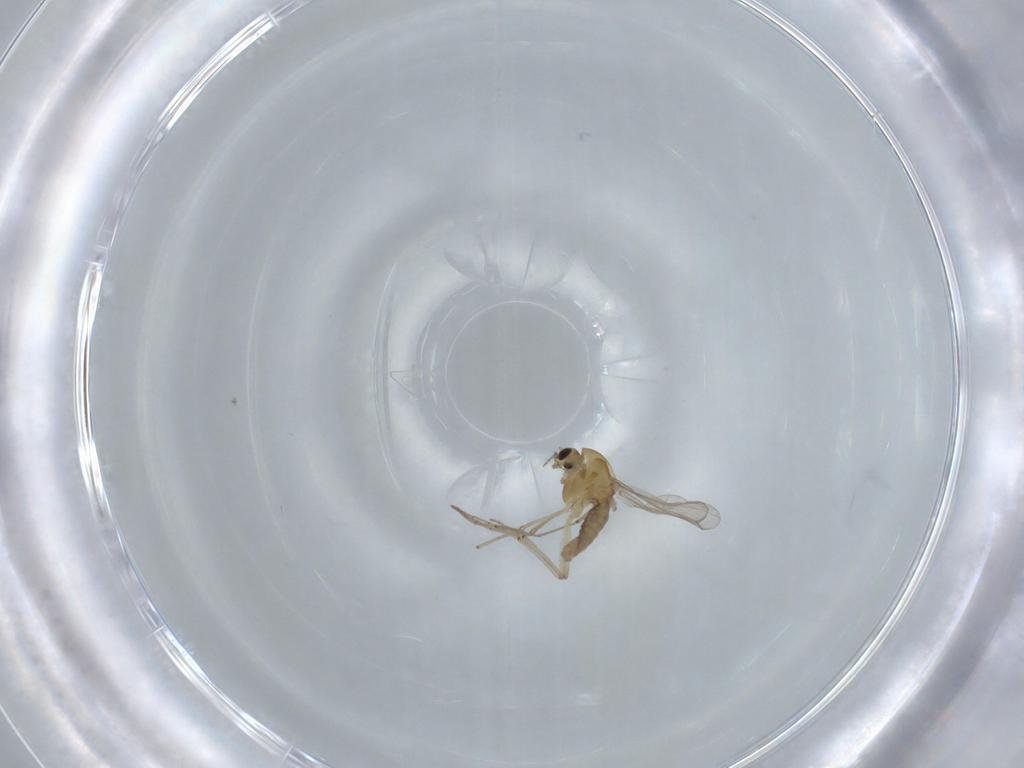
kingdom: Animalia
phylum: Arthropoda
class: Insecta
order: Diptera
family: Chironomidae
